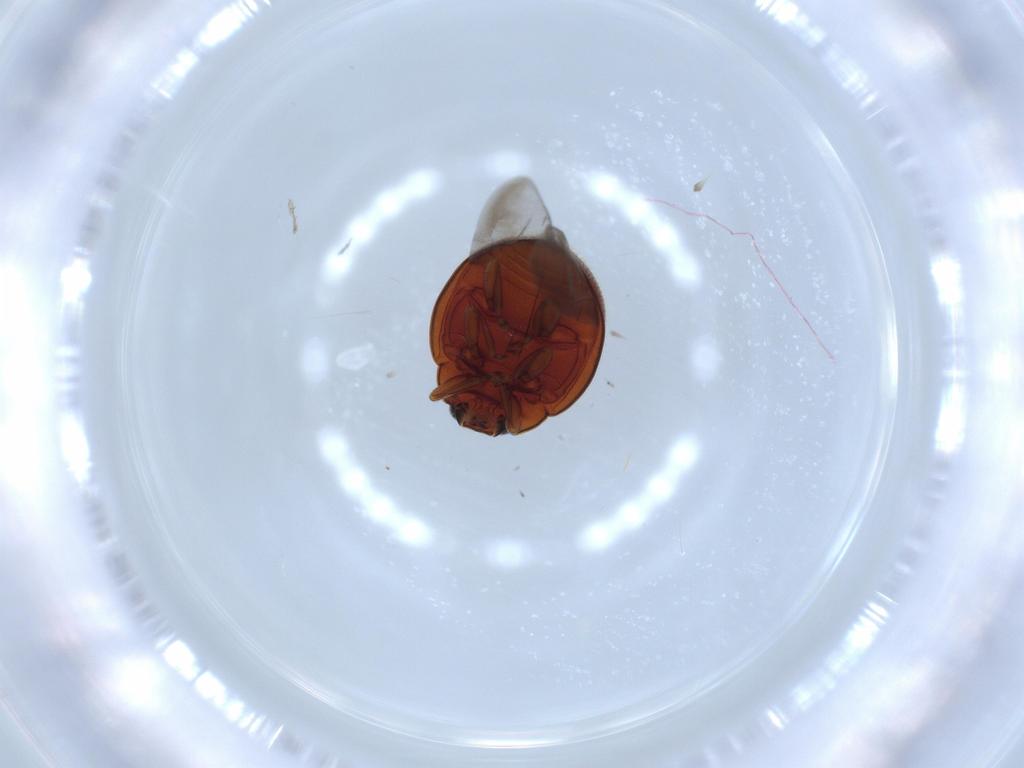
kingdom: Animalia
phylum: Arthropoda
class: Insecta
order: Coleoptera
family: Coccinellidae
